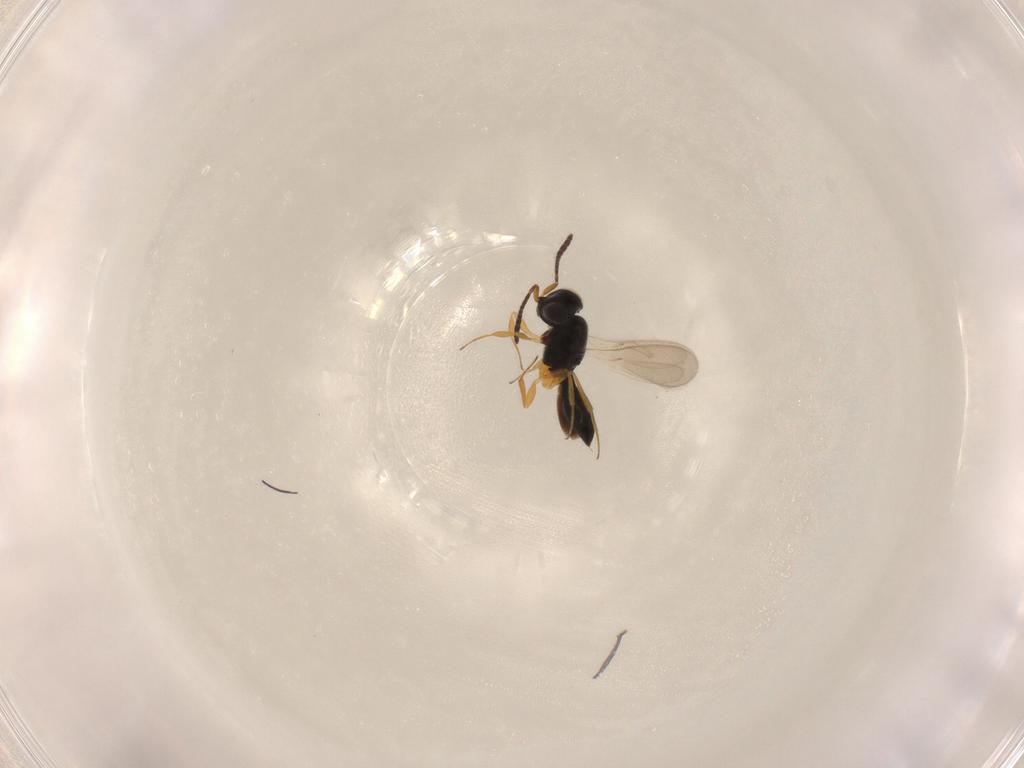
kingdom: Animalia
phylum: Arthropoda
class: Insecta
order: Hymenoptera
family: Scelionidae
